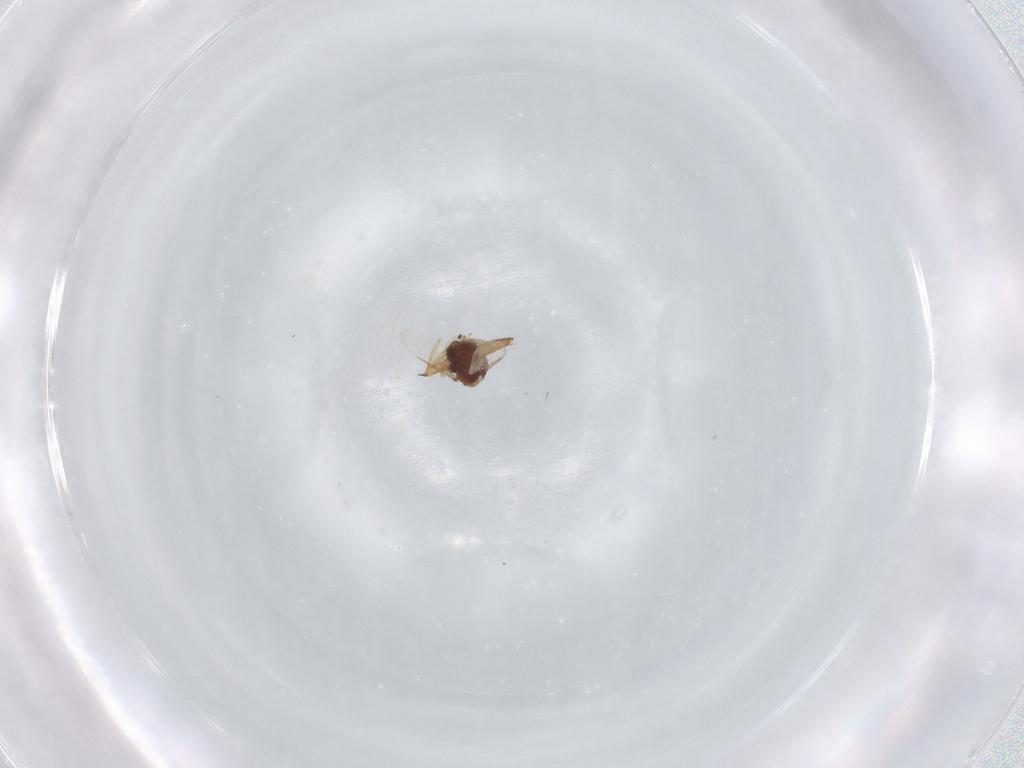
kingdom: Animalia
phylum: Arthropoda
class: Insecta
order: Diptera
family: Ceratopogonidae
